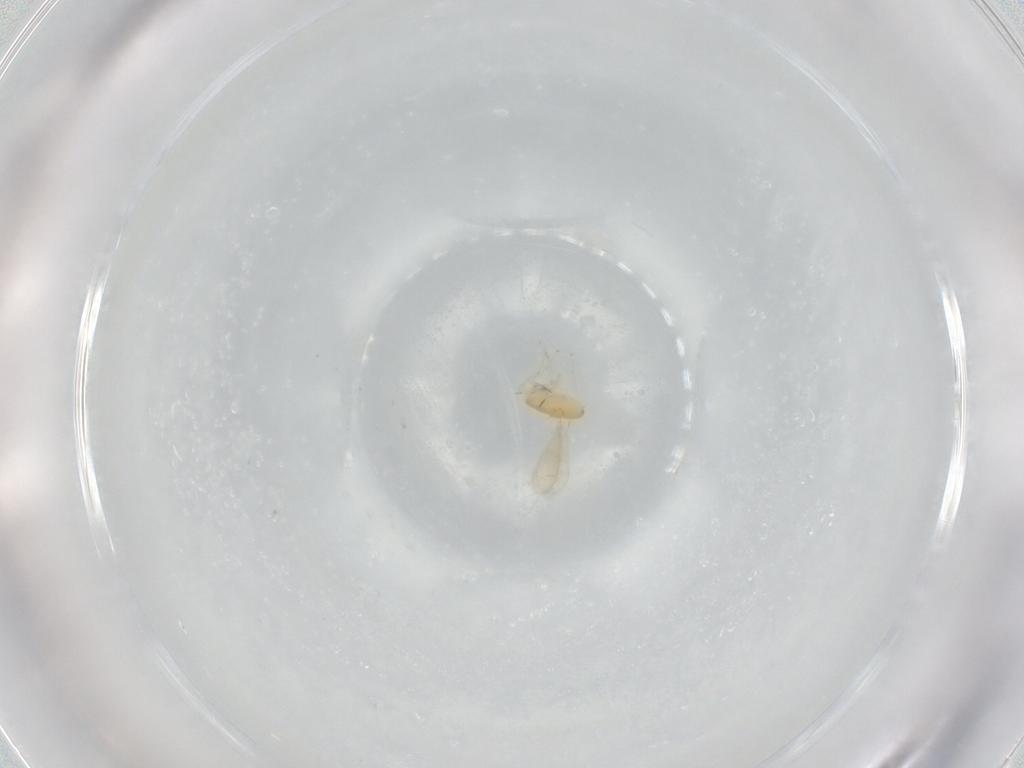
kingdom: Animalia
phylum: Arthropoda
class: Insecta
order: Hymenoptera
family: Aphelinidae
